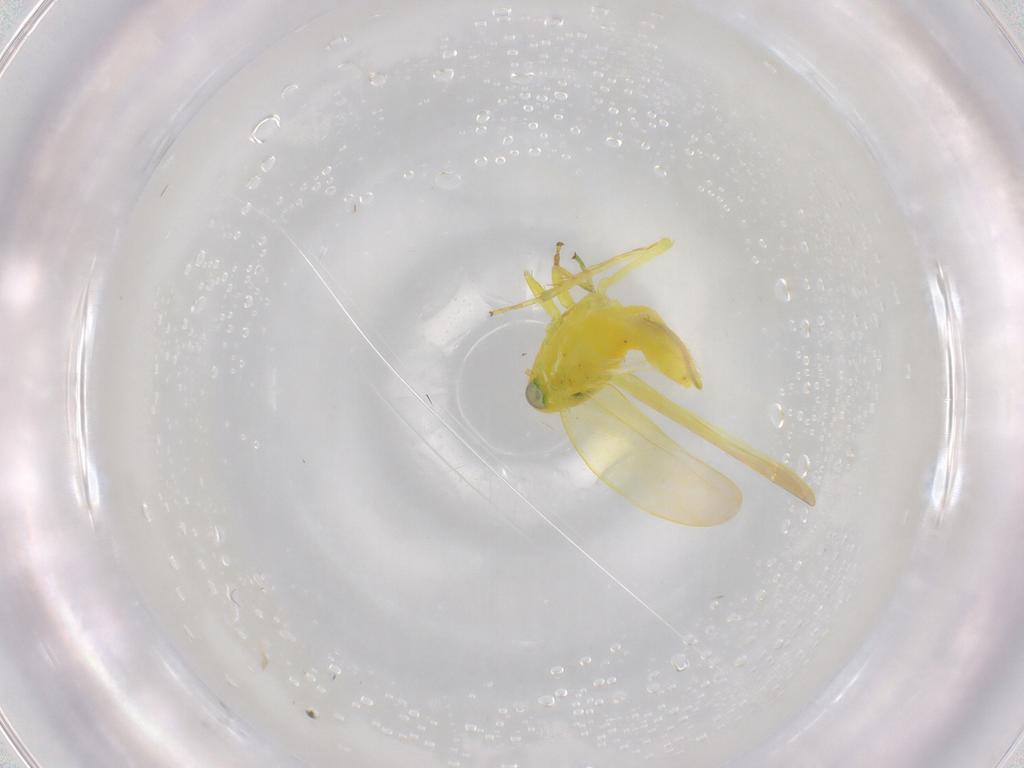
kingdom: Animalia
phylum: Arthropoda
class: Insecta
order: Hemiptera
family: Cicadellidae
